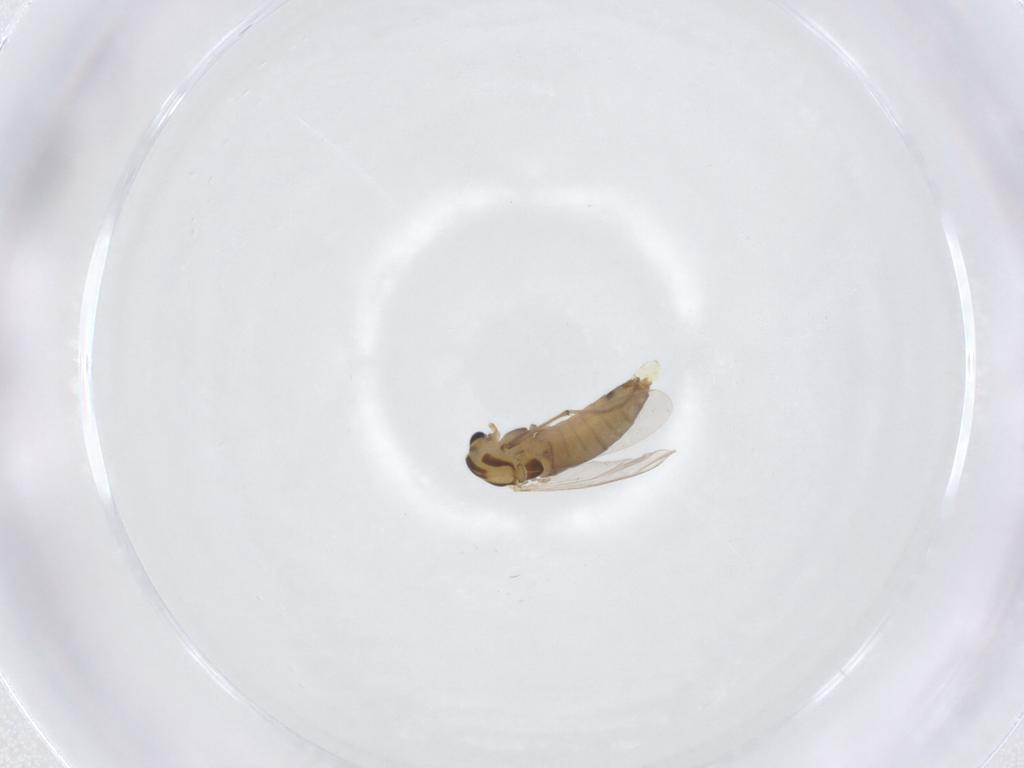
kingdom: Animalia
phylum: Arthropoda
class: Insecta
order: Diptera
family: Chironomidae
